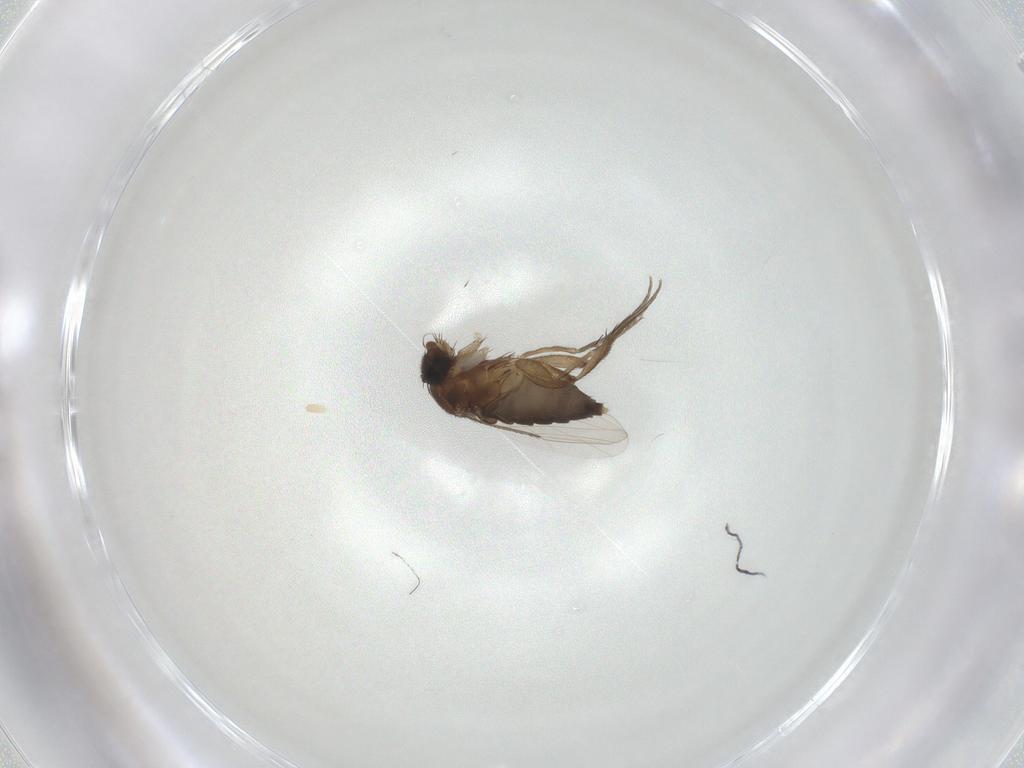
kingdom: Animalia
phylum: Arthropoda
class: Insecta
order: Diptera
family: Phoridae
